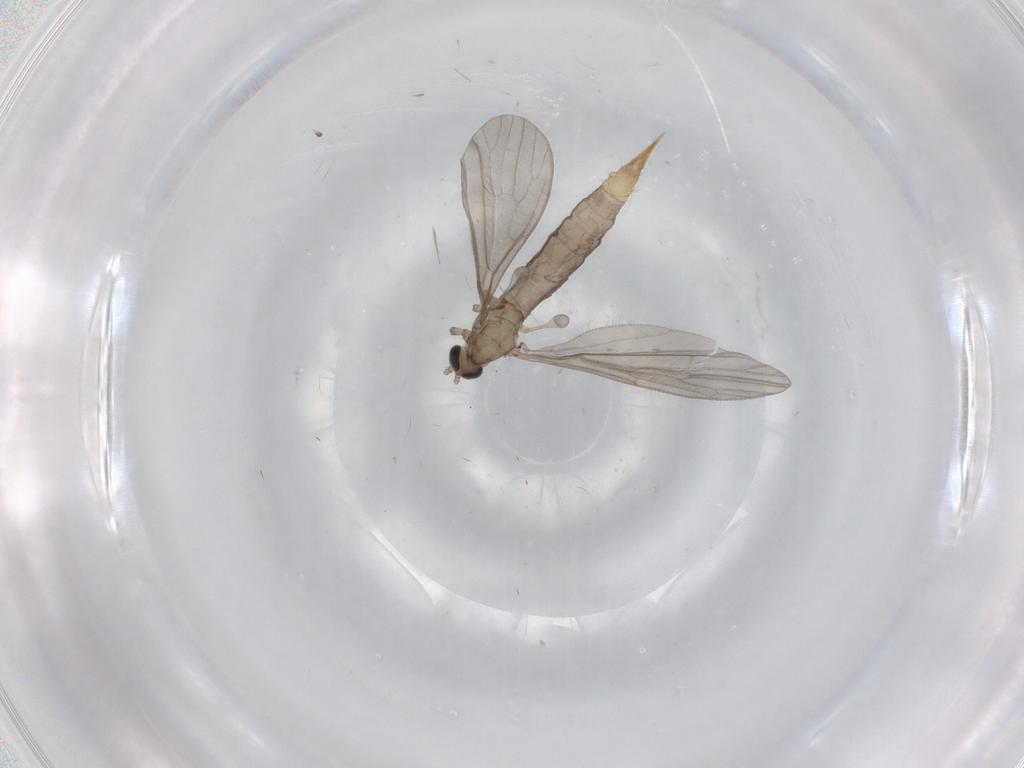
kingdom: Animalia
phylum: Arthropoda
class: Insecta
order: Diptera
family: Limoniidae
